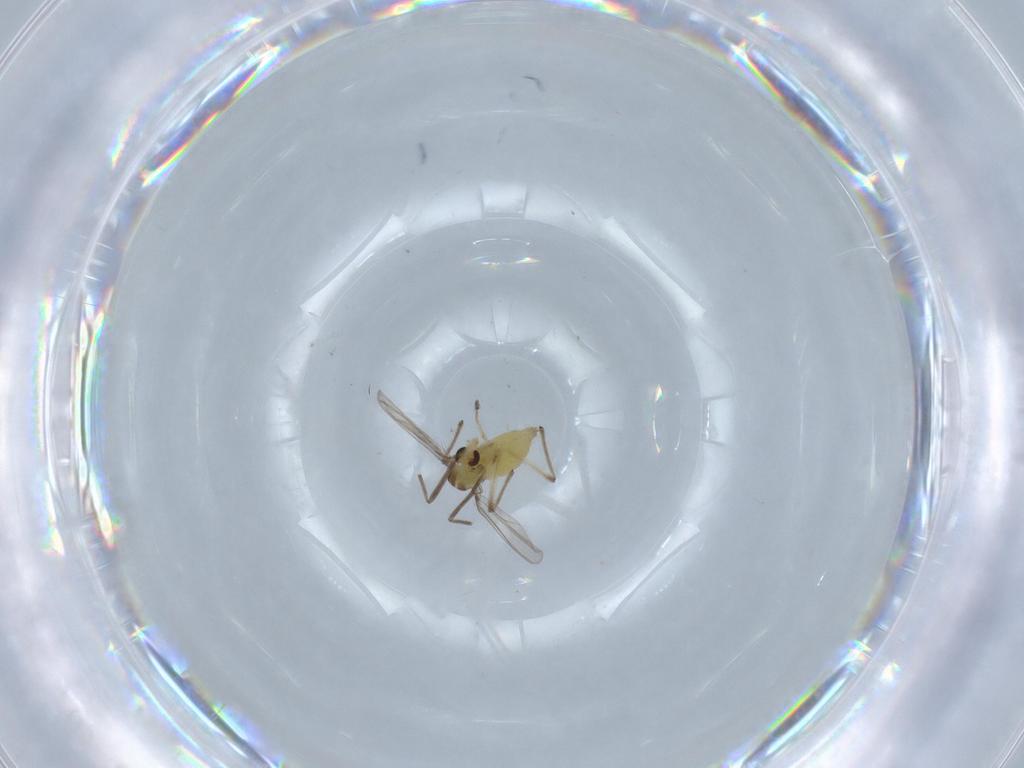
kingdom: Animalia
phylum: Arthropoda
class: Insecta
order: Diptera
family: Chironomidae
